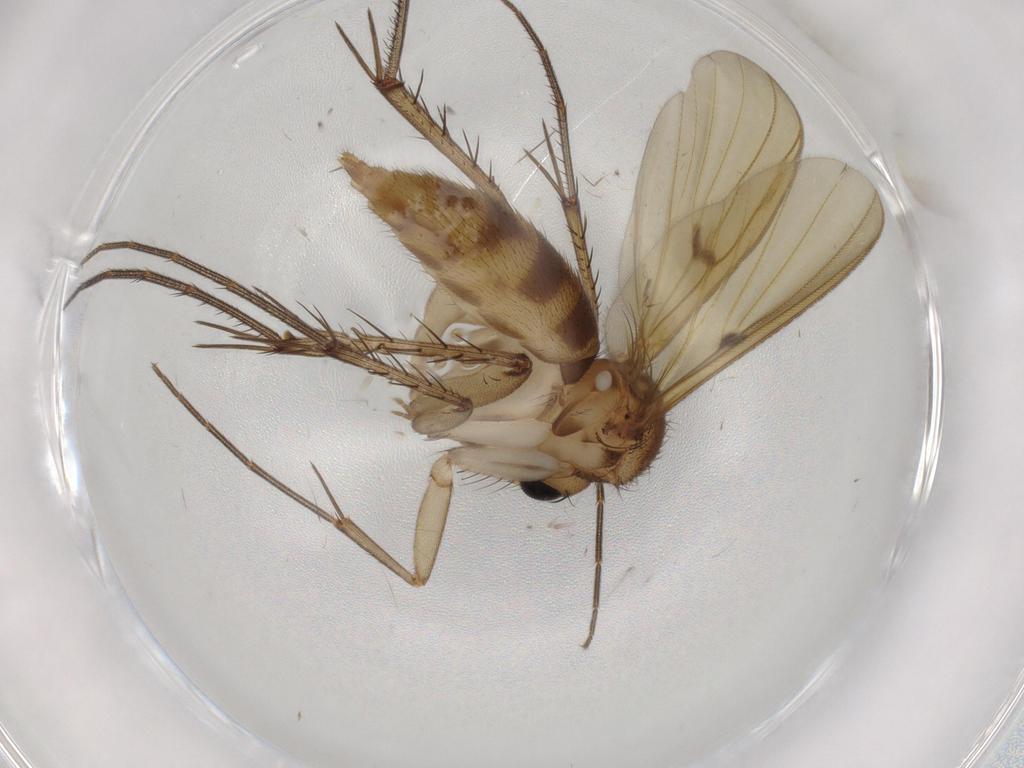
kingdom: Animalia
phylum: Arthropoda
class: Insecta
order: Diptera
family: Mycetophilidae
